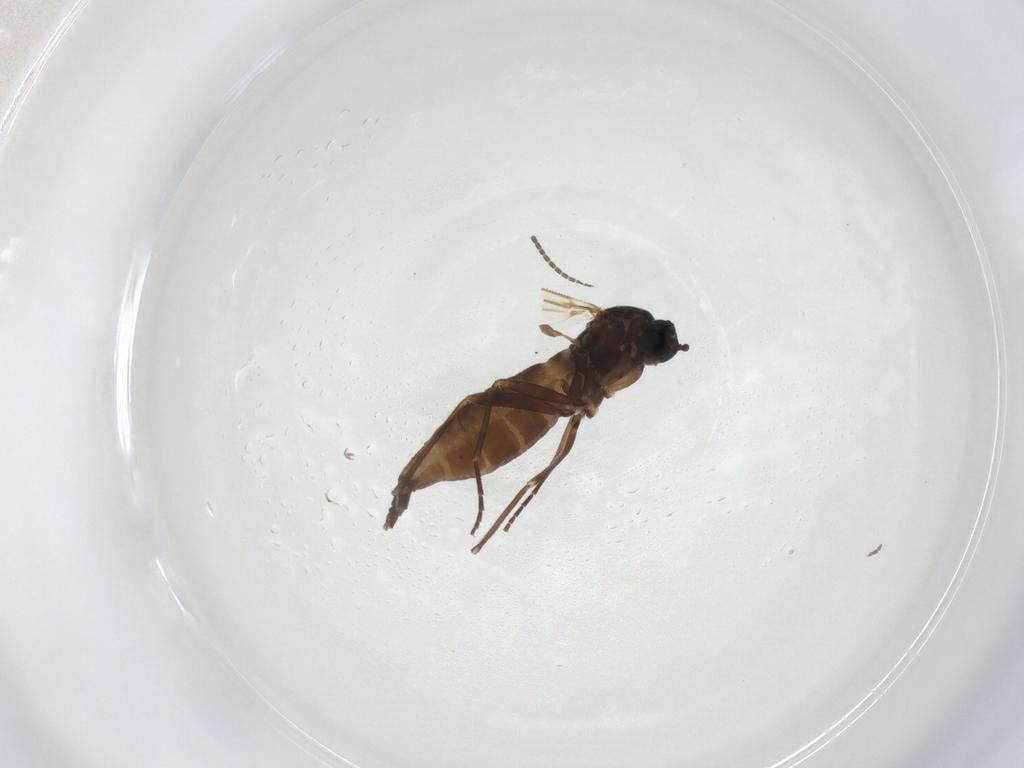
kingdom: Animalia
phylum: Arthropoda
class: Insecta
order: Diptera
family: Sciaridae
